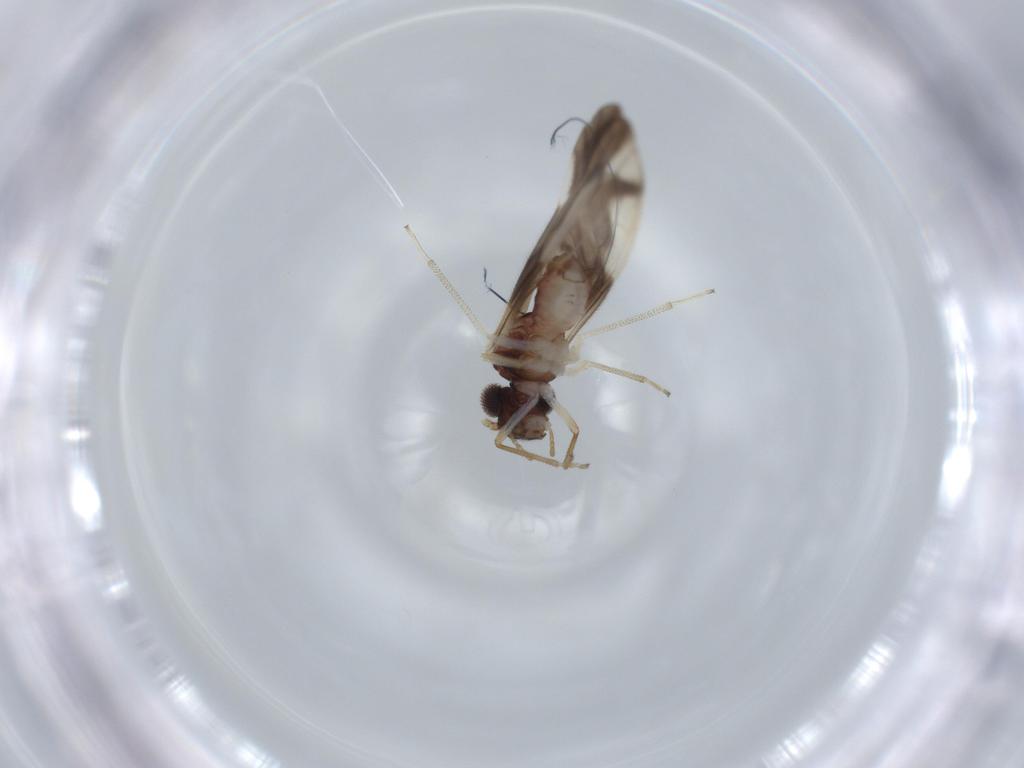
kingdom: Animalia
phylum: Arthropoda
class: Insecta
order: Psocodea
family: Caeciliusidae
